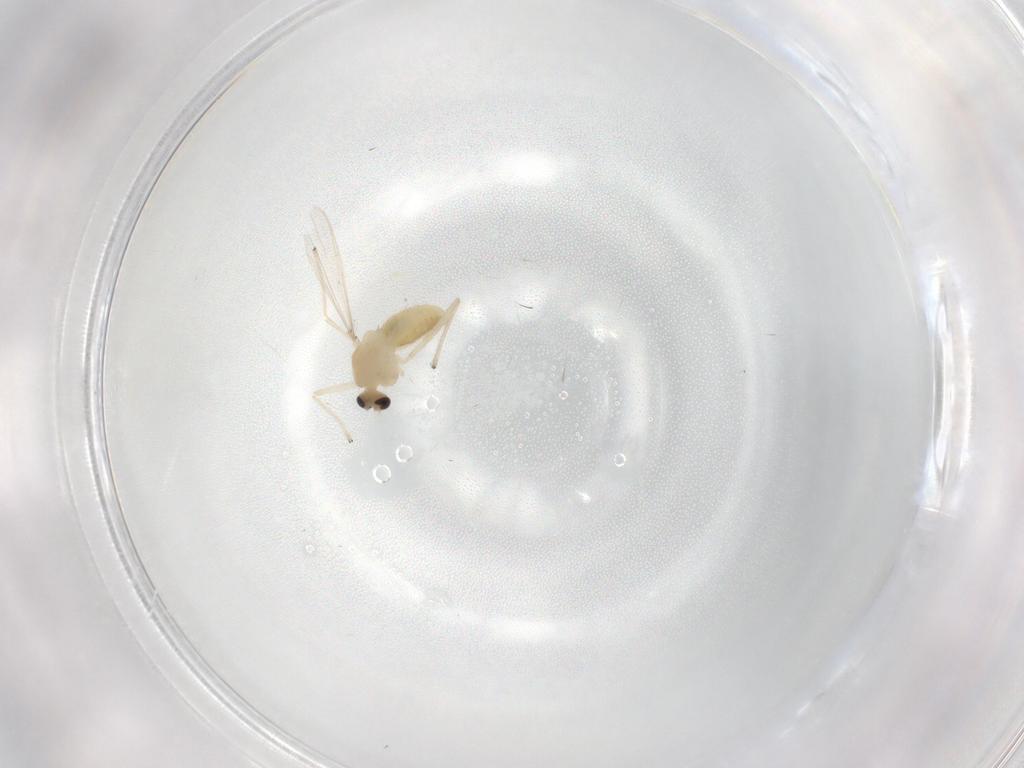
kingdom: Animalia
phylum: Arthropoda
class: Insecta
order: Diptera
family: Chironomidae
